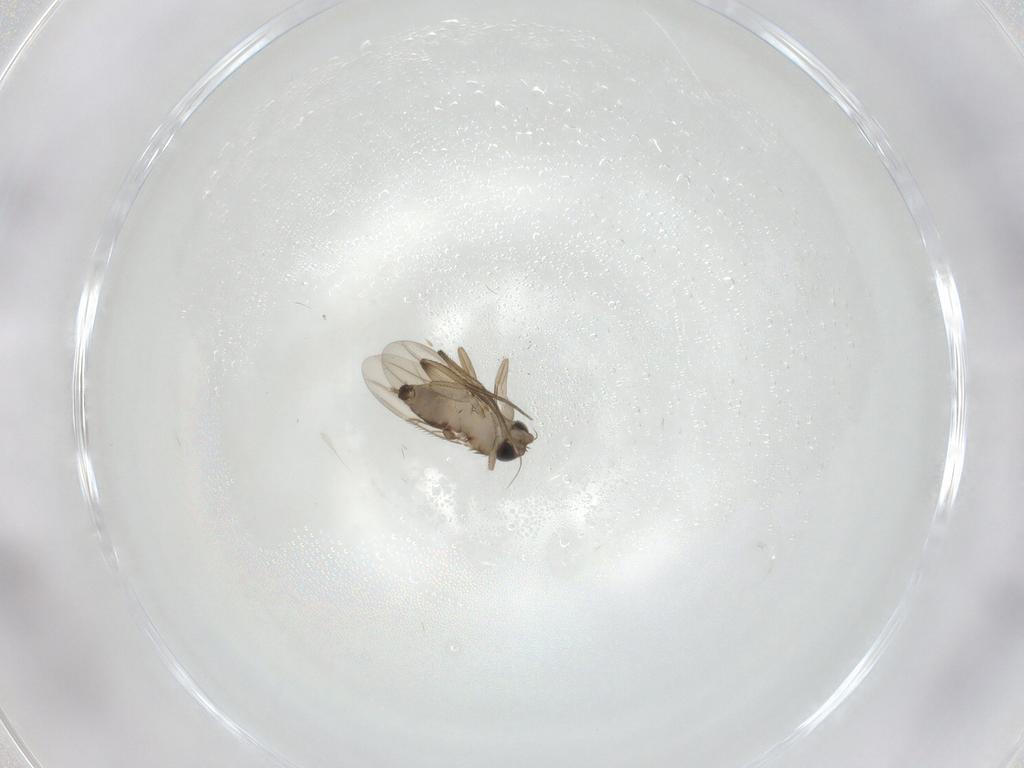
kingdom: Animalia
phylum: Arthropoda
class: Insecta
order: Diptera
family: Phoridae
